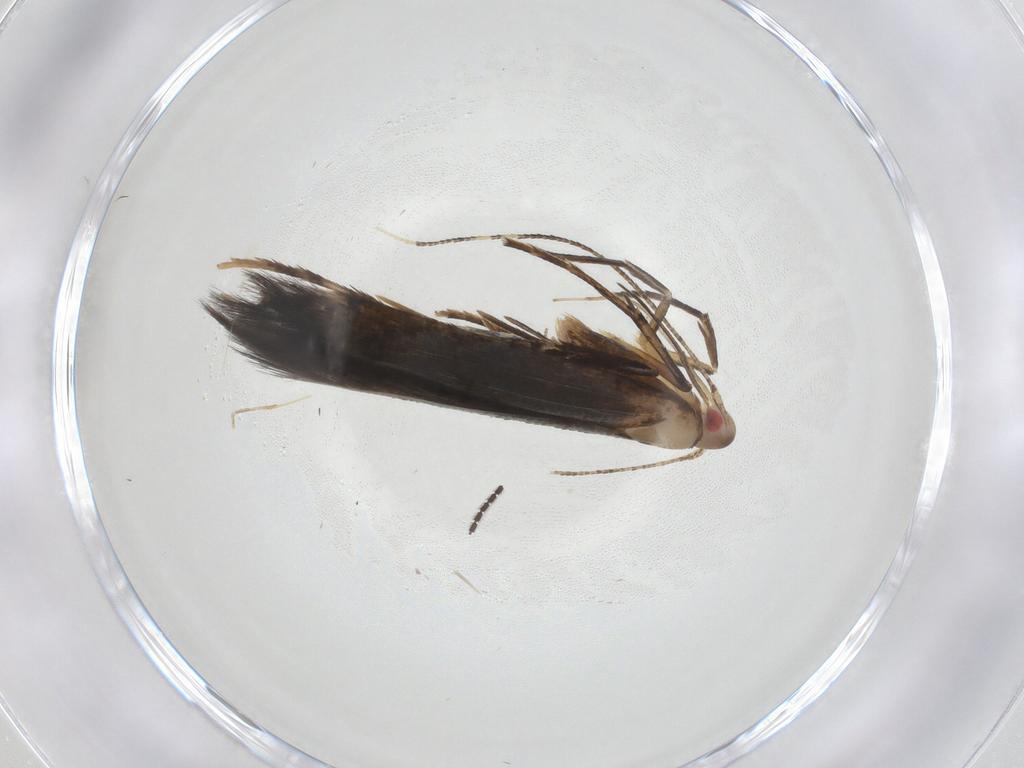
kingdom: Animalia
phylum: Arthropoda
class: Insecta
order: Lepidoptera
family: Cosmopterigidae
